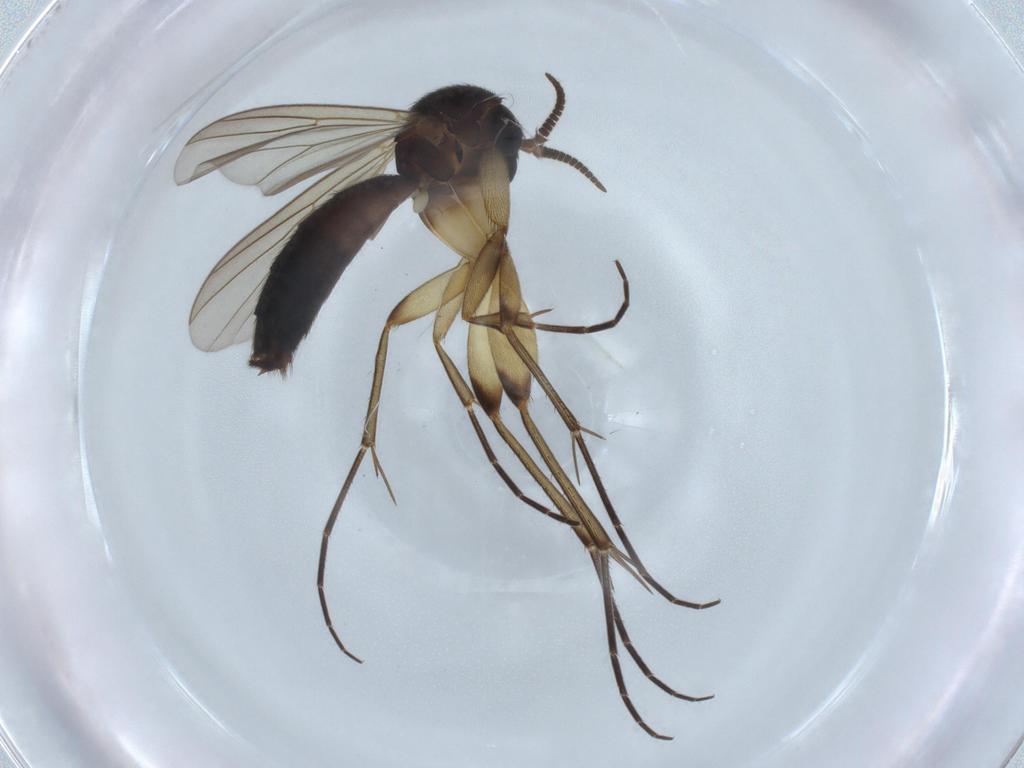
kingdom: Animalia
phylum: Arthropoda
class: Insecta
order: Diptera
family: Mycetophilidae
